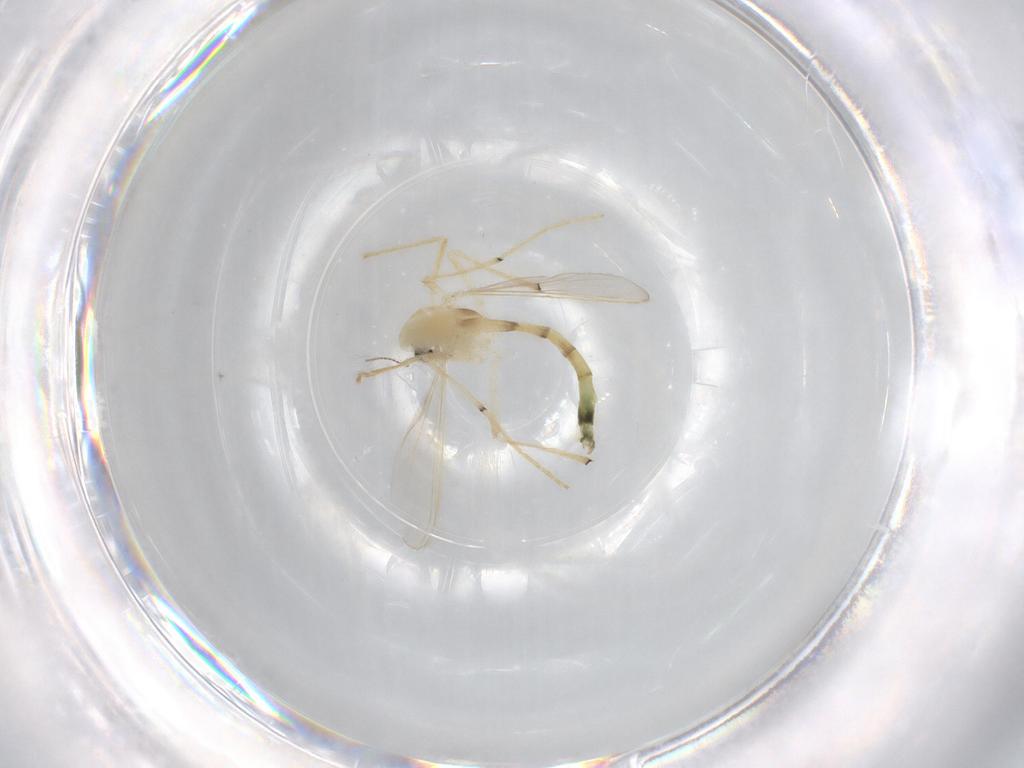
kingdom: Animalia
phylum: Arthropoda
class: Insecta
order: Diptera
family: Chironomidae
